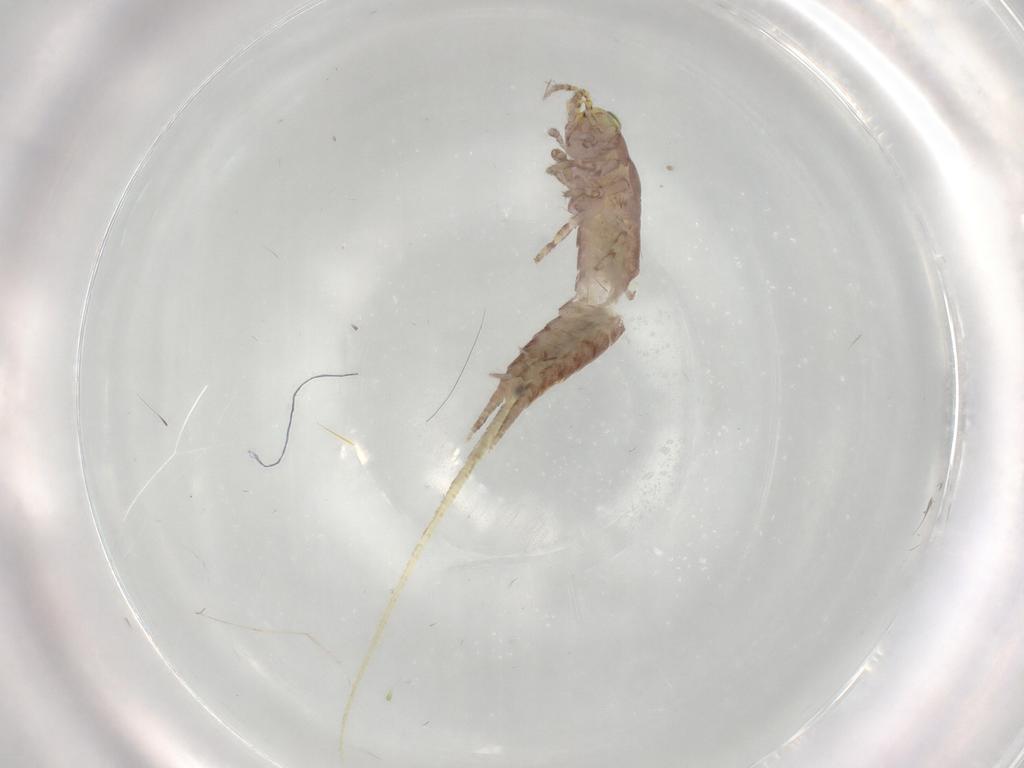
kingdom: Animalia
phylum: Arthropoda
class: Insecta
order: Archaeognatha
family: Machilidae
